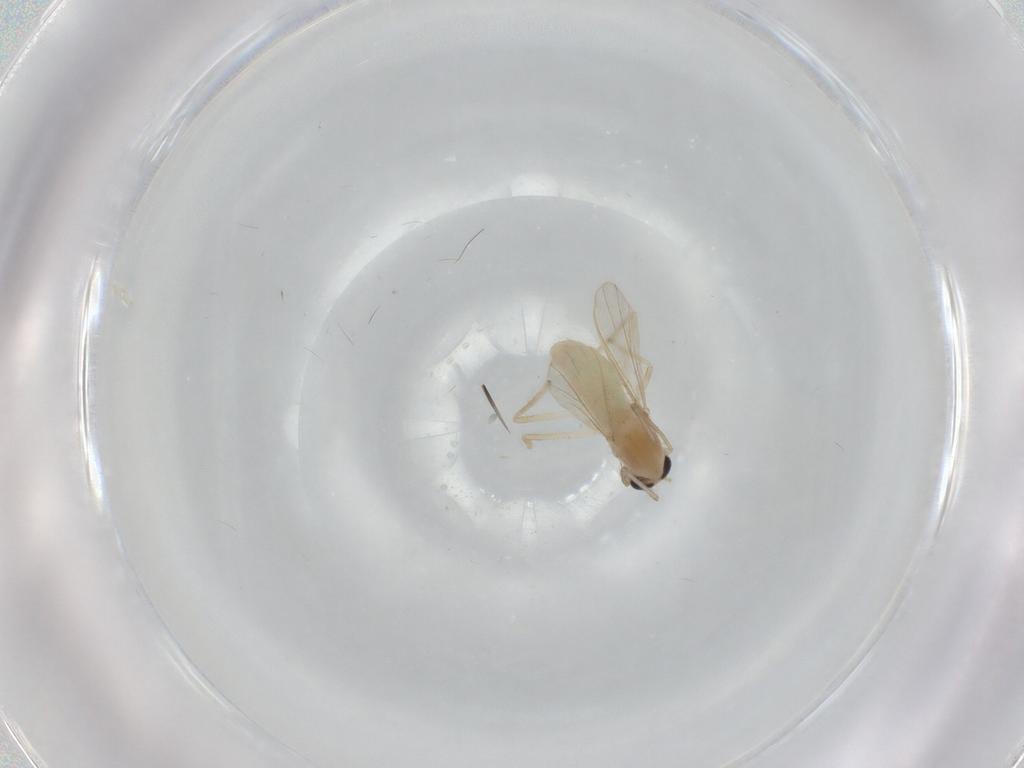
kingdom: Animalia
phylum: Arthropoda
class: Insecta
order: Diptera
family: Chironomidae
